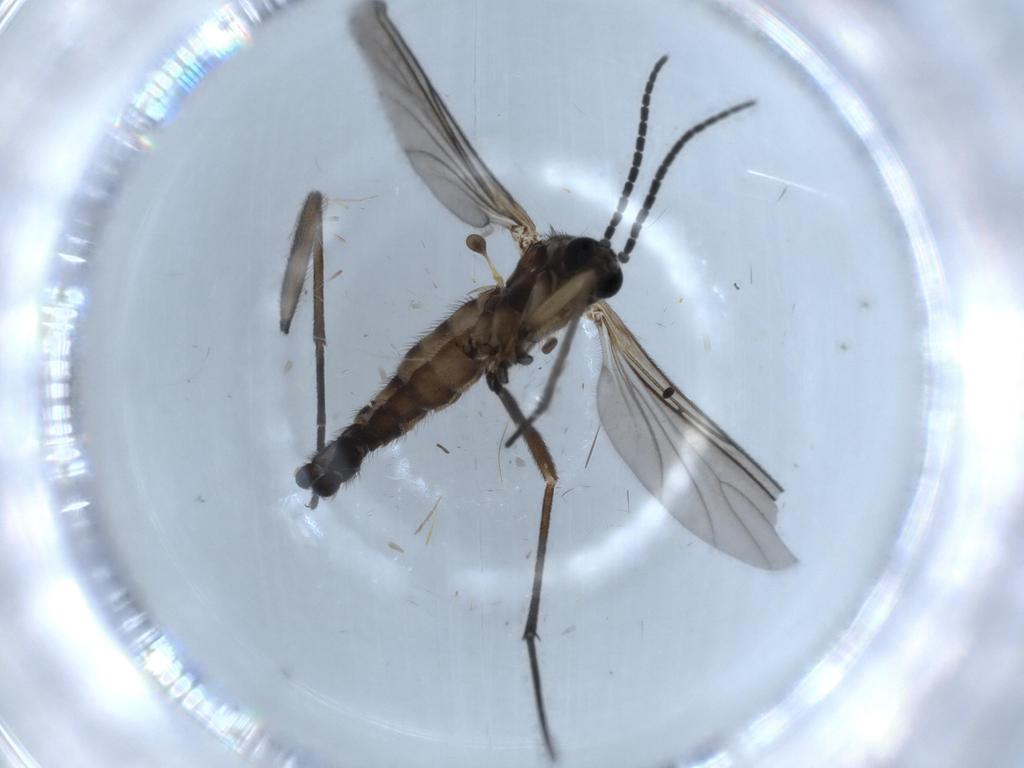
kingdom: Animalia
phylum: Arthropoda
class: Insecta
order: Diptera
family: Sciaridae
